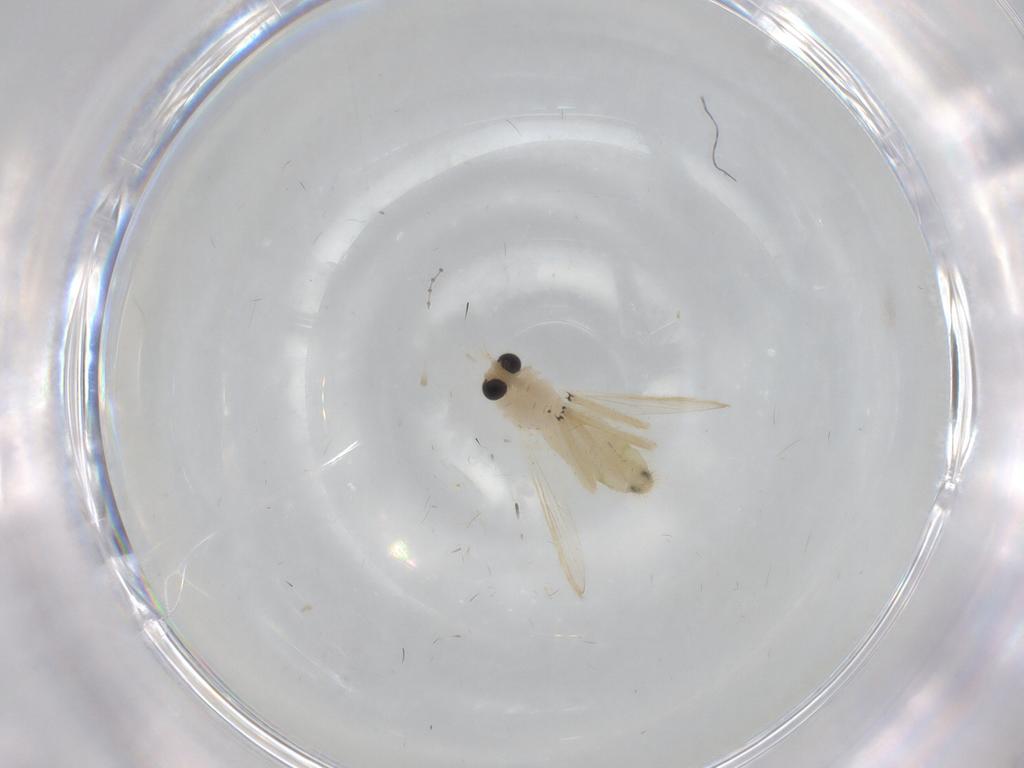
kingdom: Animalia
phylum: Arthropoda
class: Insecta
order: Diptera
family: Chironomidae
